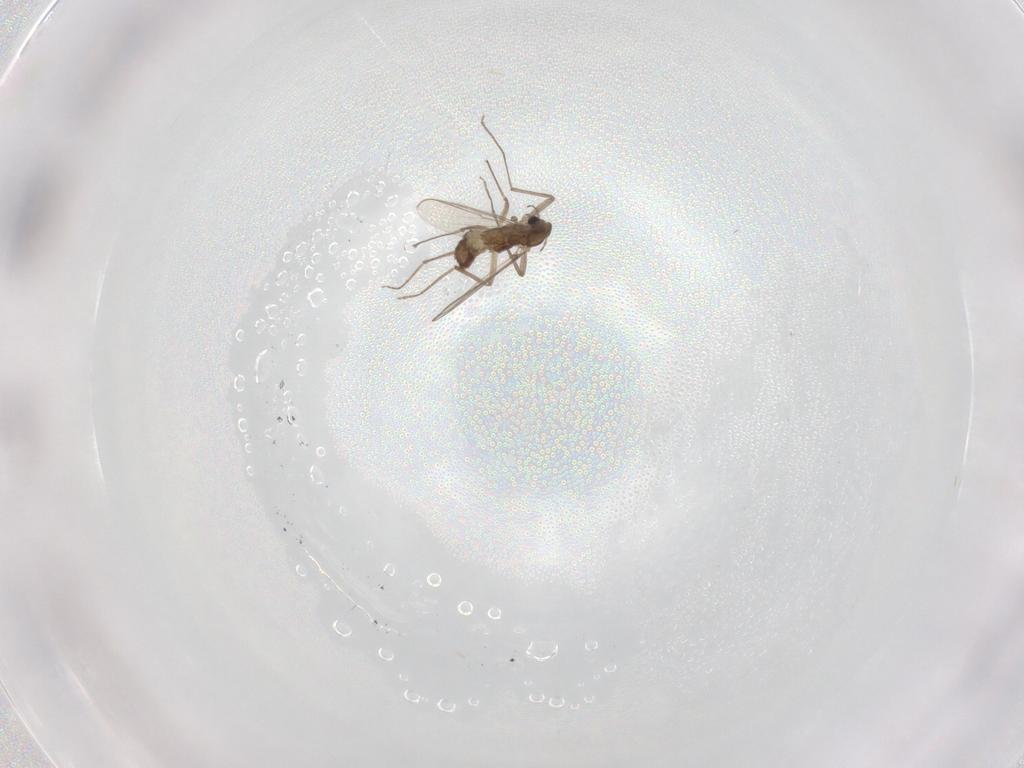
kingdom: Animalia
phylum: Arthropoda
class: Insecta
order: Diptera
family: Chironomidae
